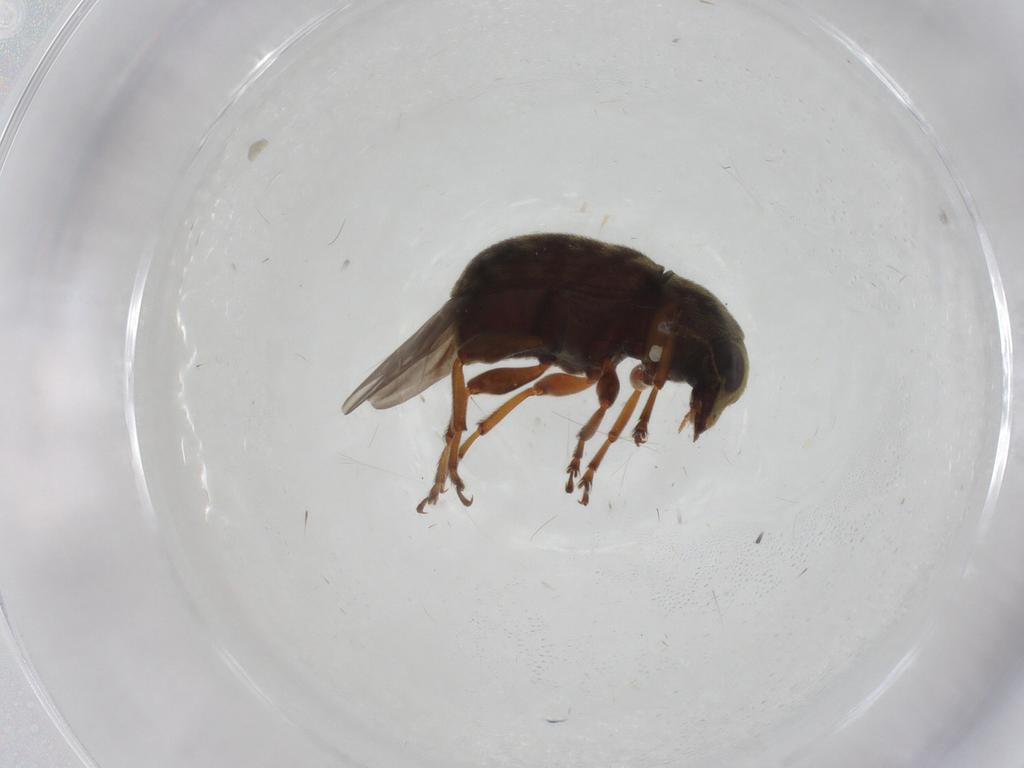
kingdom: Animalia
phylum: Arthropoda
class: Insecta
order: Coleoptera
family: Anthribidae
